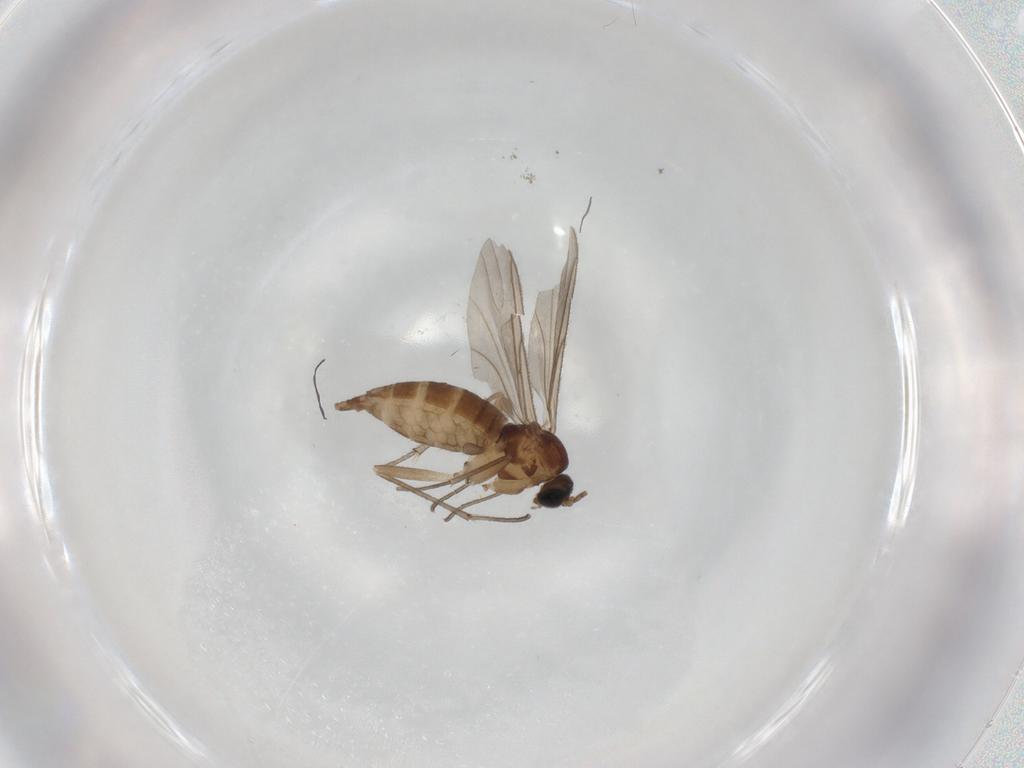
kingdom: Animalia
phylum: Arthropoda
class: Insecta
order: Diptera
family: Sciaridae
